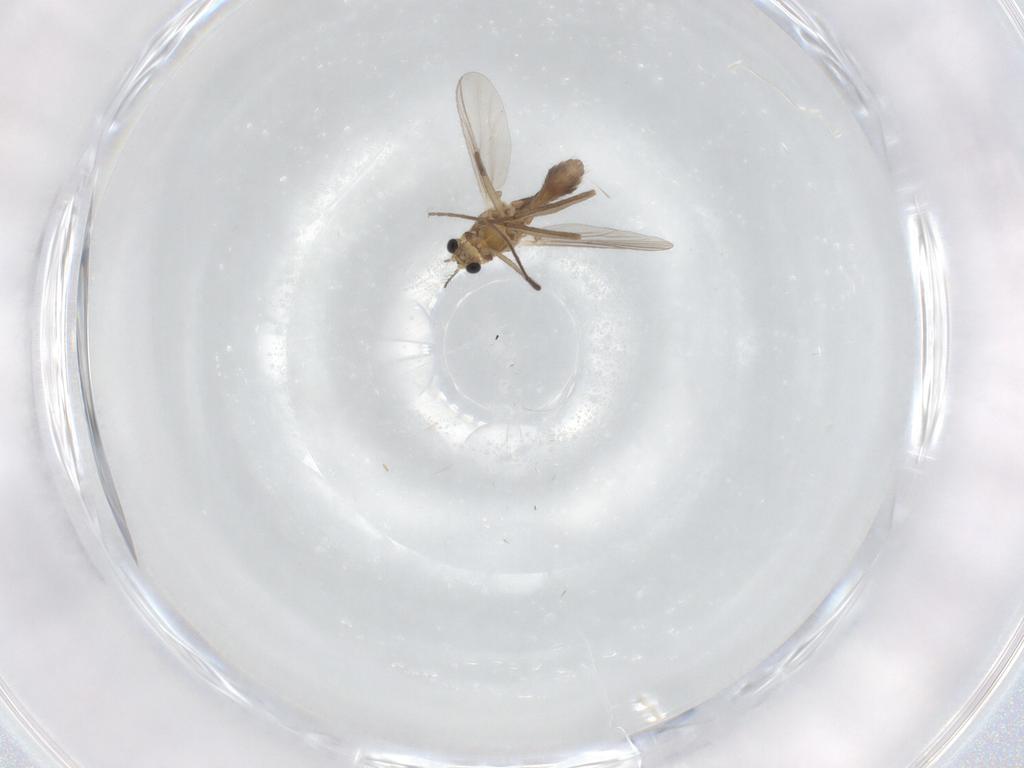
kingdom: Animalia
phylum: Arthropoda
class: Insecta
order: Diptera
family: Chironomidae
